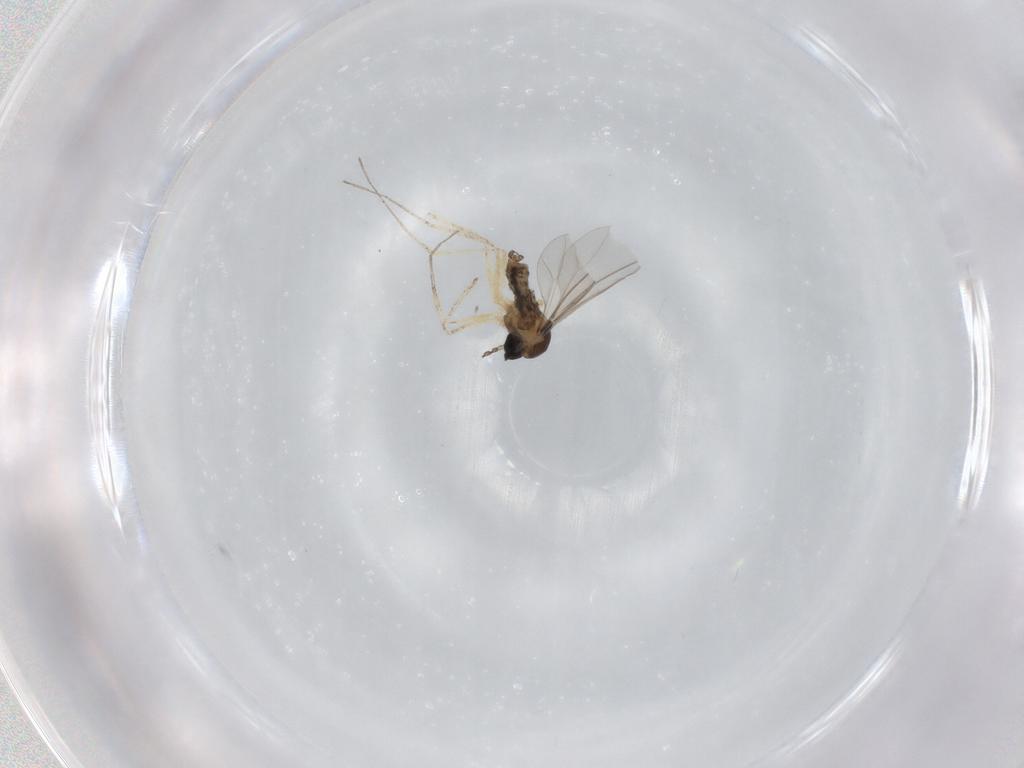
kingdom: Animalia
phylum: Arthropoda
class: Insecta
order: Diptera
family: Cecidomyiidae
